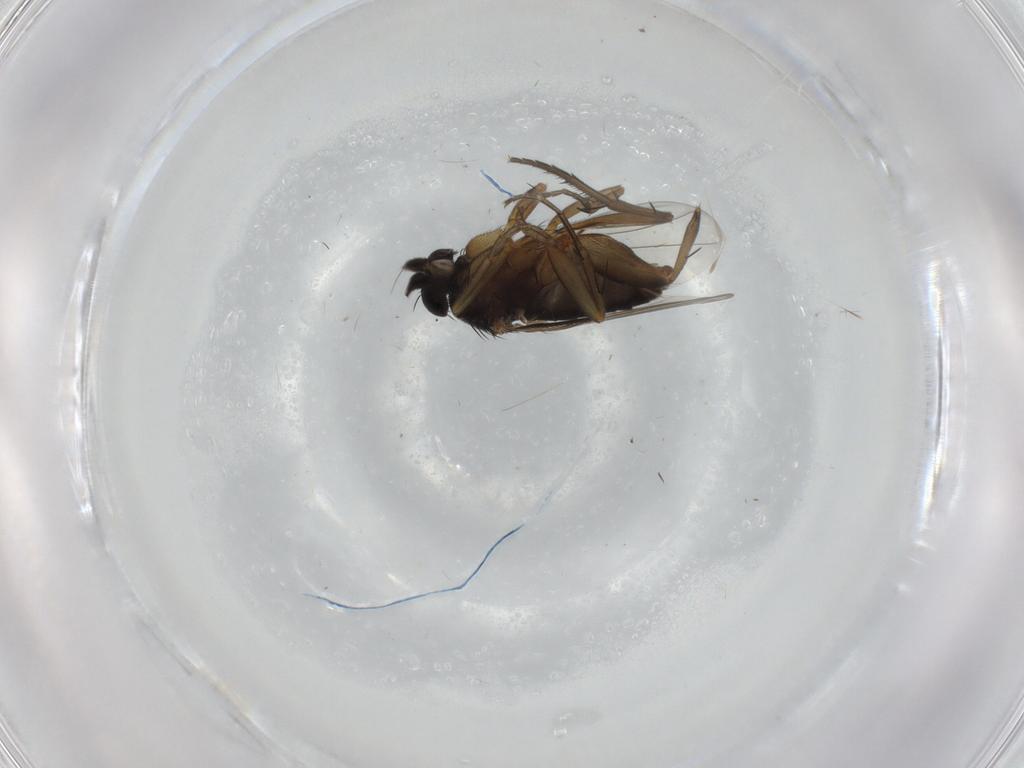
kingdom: Animalia
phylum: Arthropoda
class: Insecta
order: Diptera
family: Phoridae
